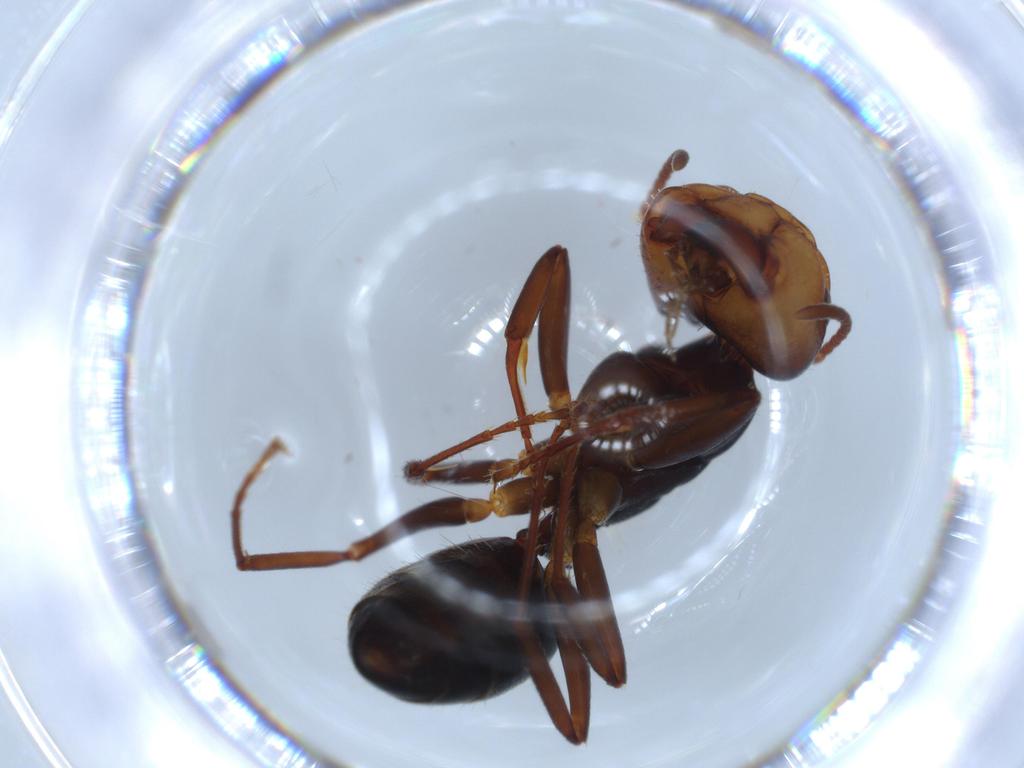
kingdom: Animalia
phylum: Arthropoda
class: Insecta
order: Hymenoptera
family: Formicidae
